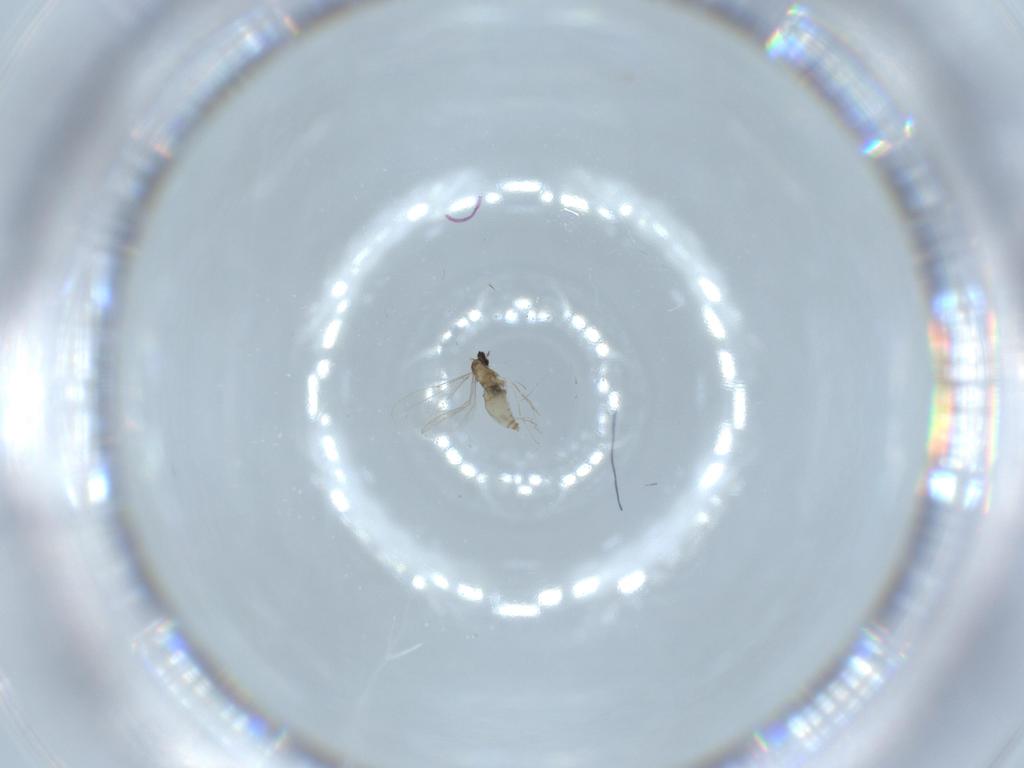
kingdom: Animalia
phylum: Arthropoda
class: Insecta
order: Diptera
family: Cecidomyiidae
